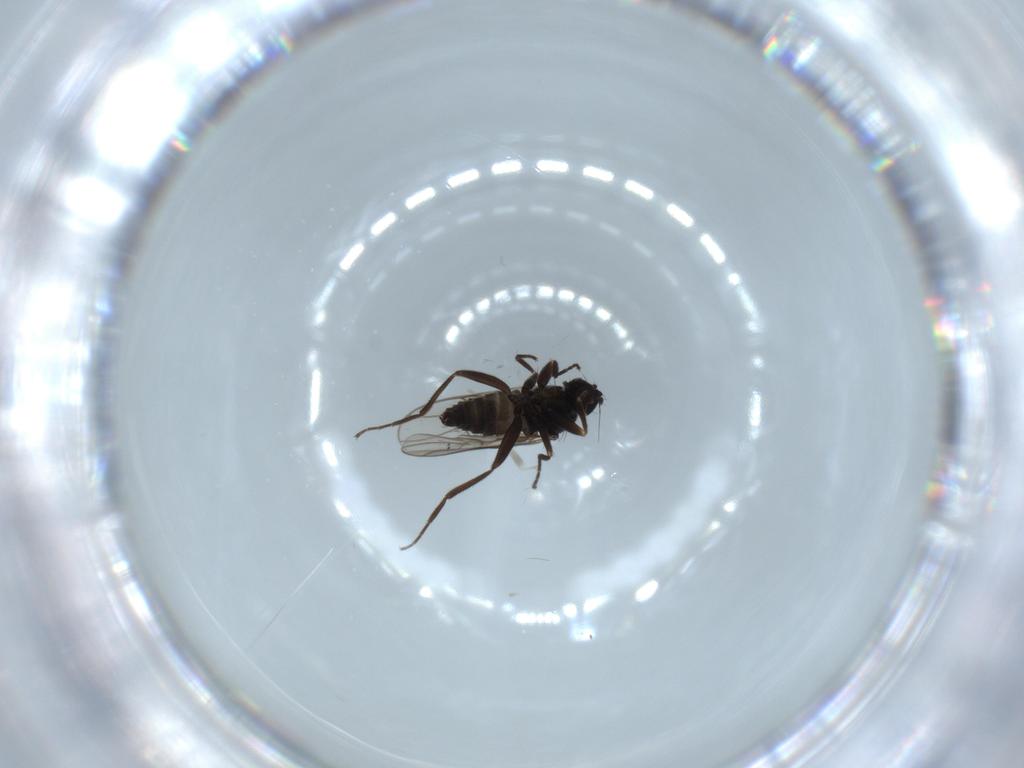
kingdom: Animalia
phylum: Arthropoda
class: Insecta
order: Diptera
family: Hybotidae
